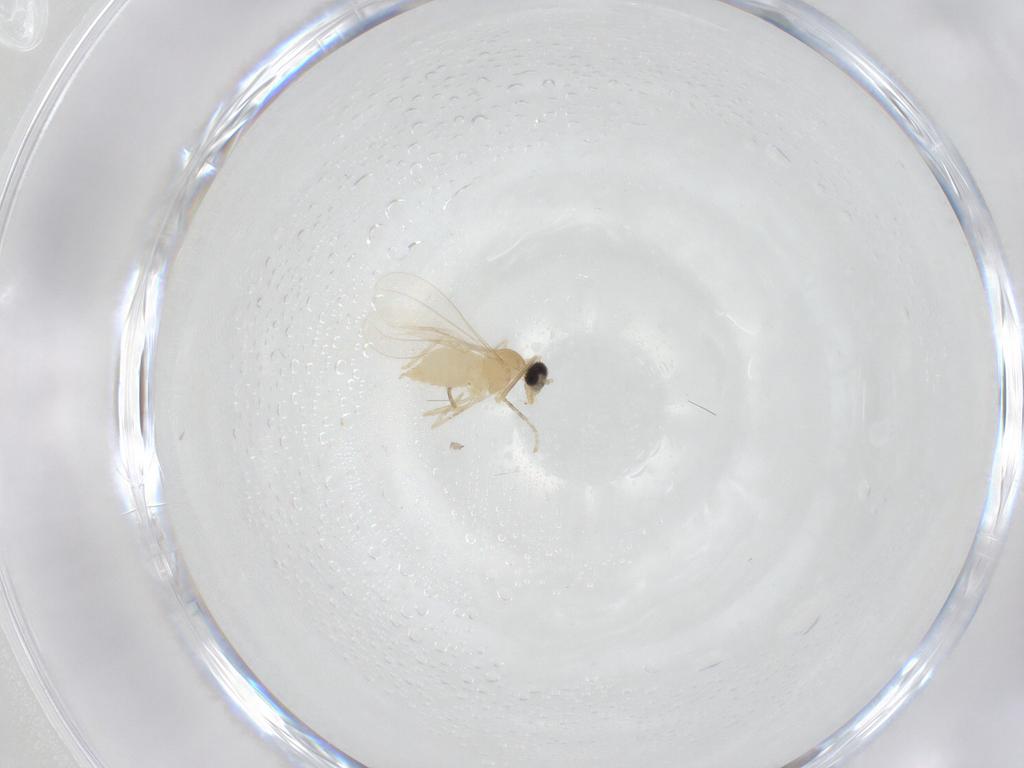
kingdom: Animalia
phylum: Arthropoda
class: Insecta
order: Diptera
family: Cecidomyiidae
